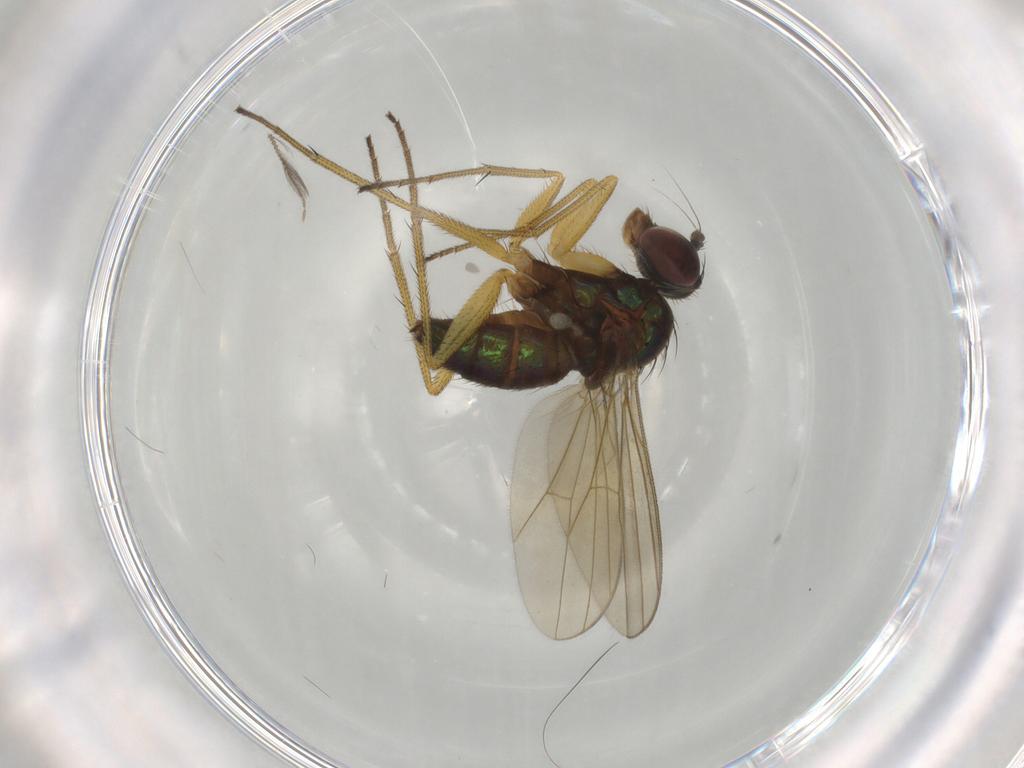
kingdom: Animalia
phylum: Arthropoda
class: Insecta
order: Diptera
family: Dolichopodidae
